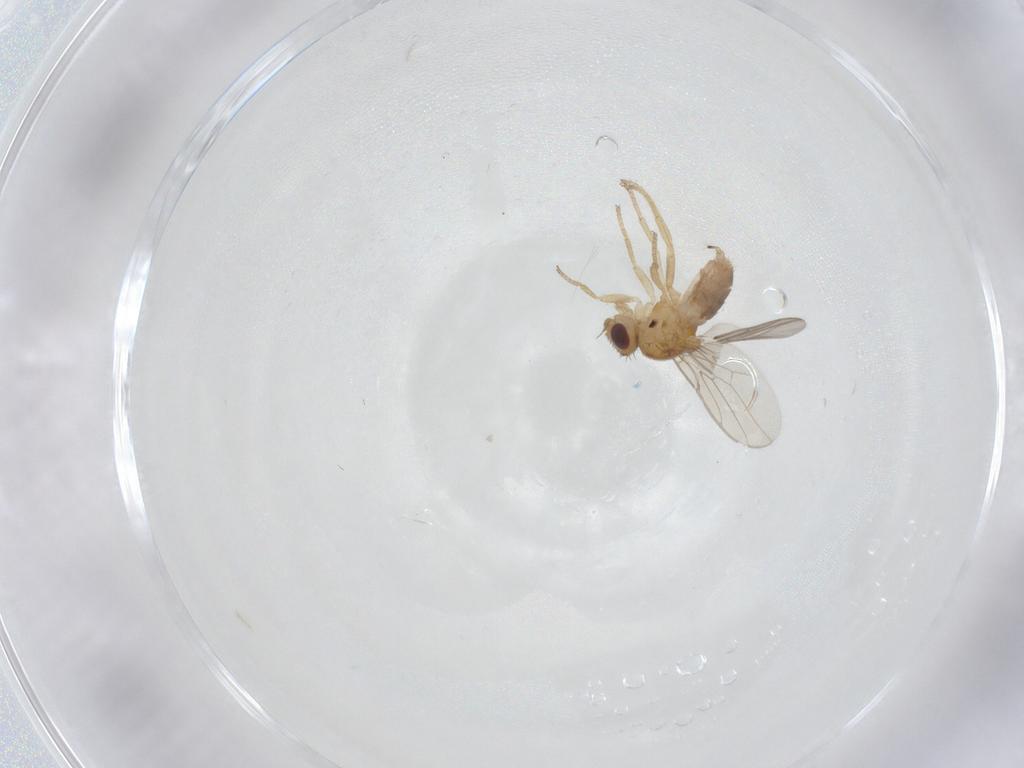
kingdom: Animalia
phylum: Arthropoda
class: Insecta
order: Diptera
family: Chloropidae
